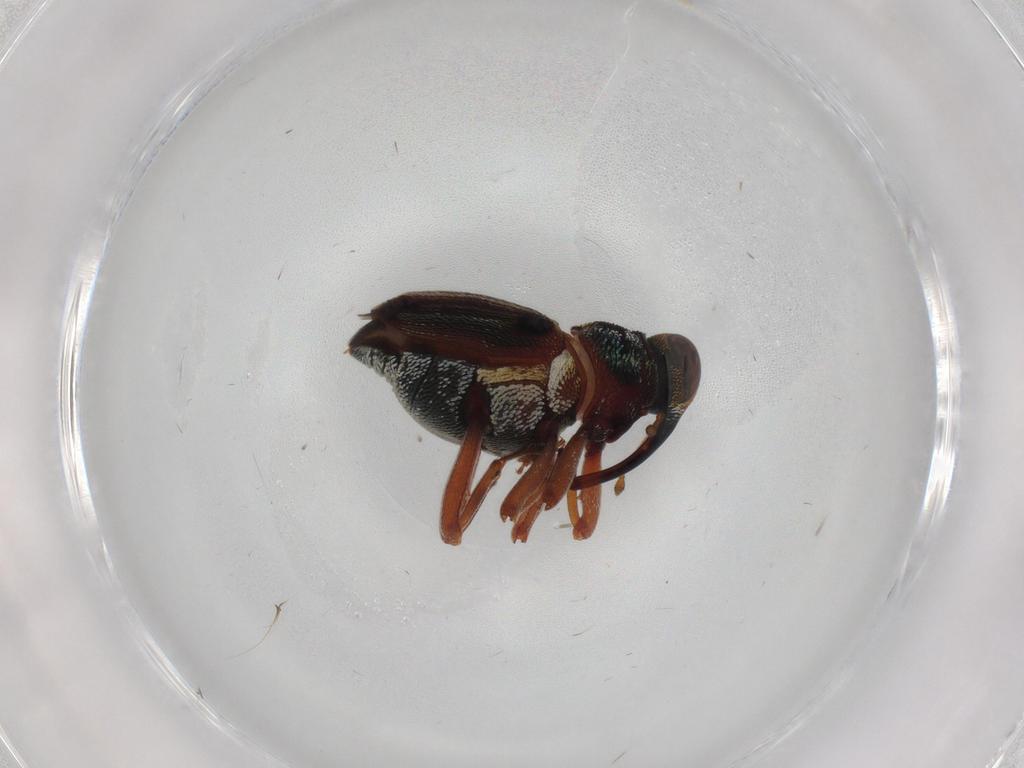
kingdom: Animalia
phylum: Arthropoda
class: Insecta
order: Coleoptera
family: Curculionidae
